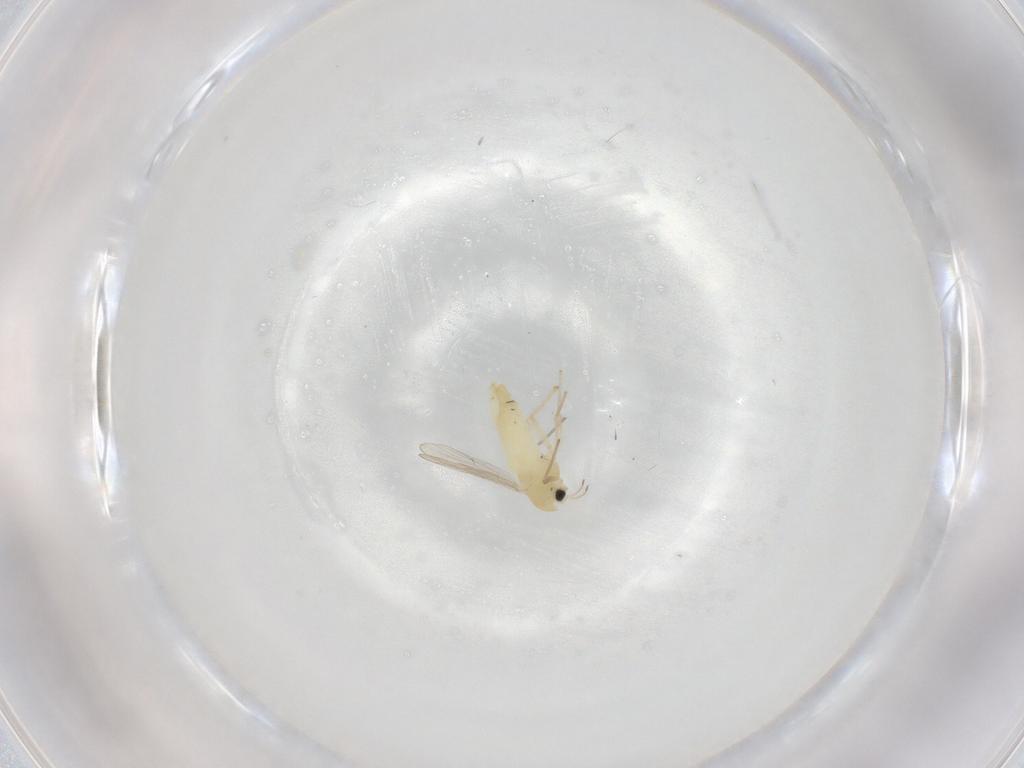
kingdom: Animalia
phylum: Arthropoda
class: Insecta
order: Diptera
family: Chironomidae
